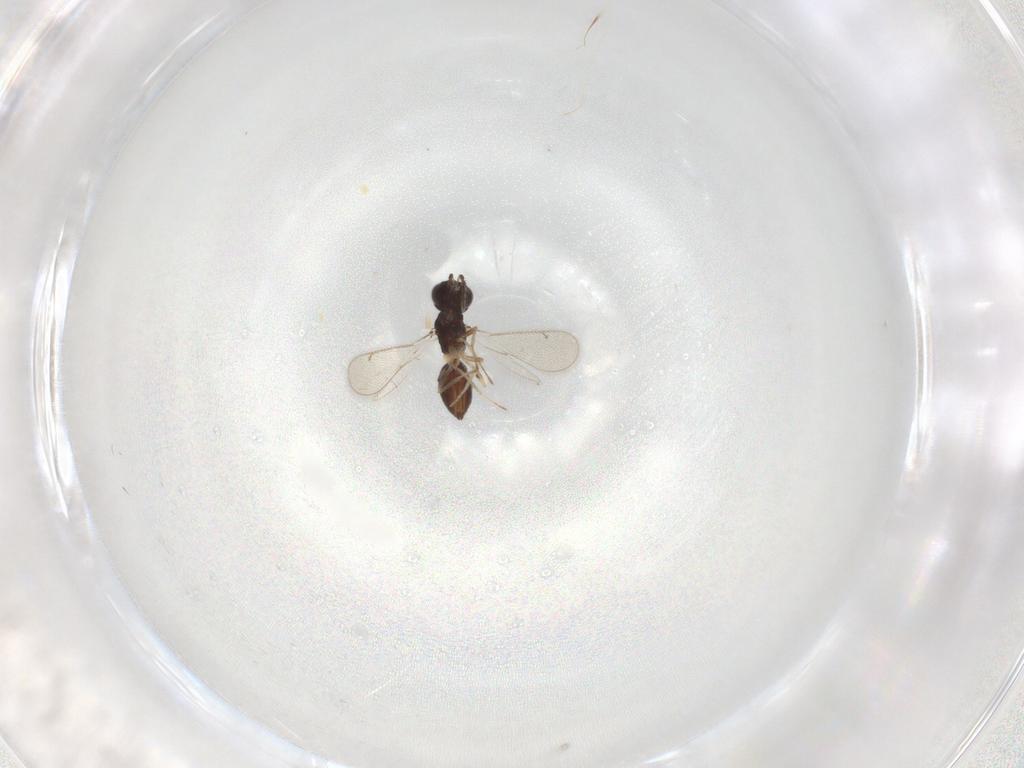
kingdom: Animalia
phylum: Arthropoda
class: Insecta
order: Hymenoptera
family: Eulophidae
